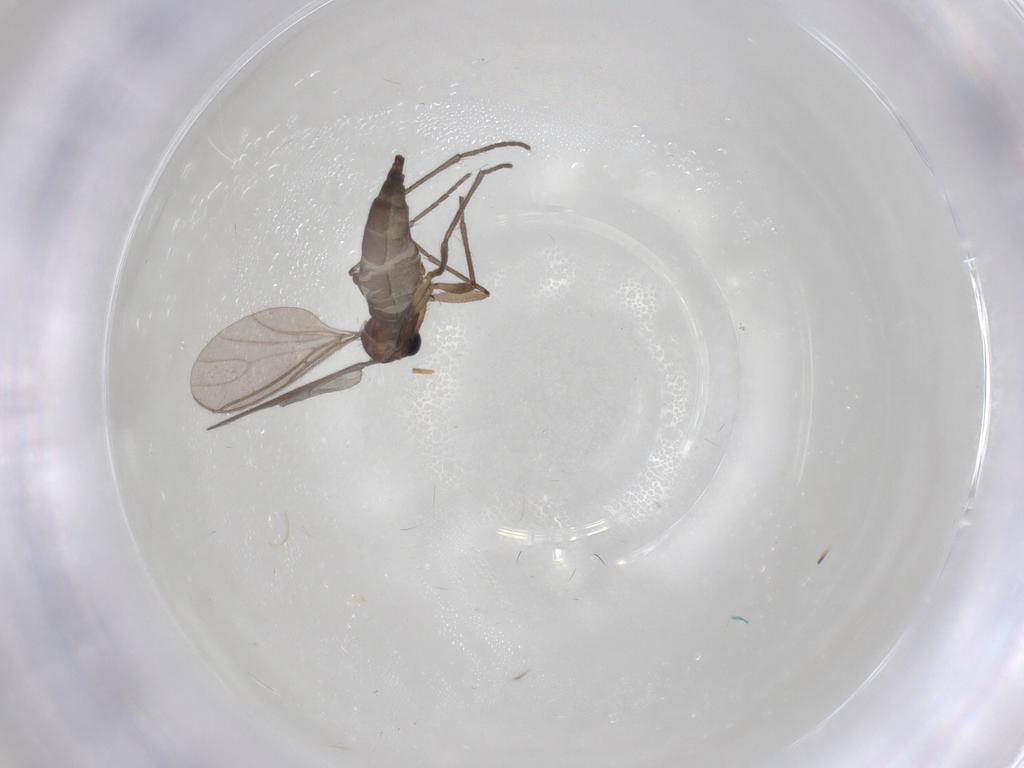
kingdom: Animalia
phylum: Arthropoda
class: Insecta
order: Diptera
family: Sciaridae
